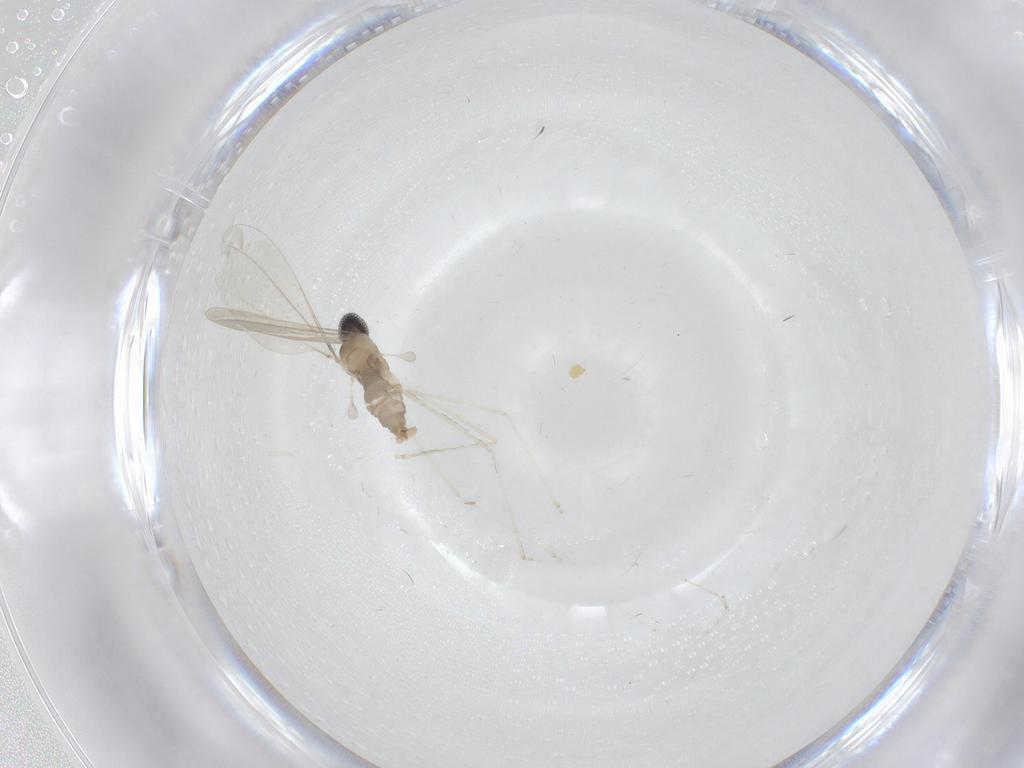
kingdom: Animalia
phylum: Arthropoda
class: Insecta
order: Diptera
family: Cecidomyiidae
